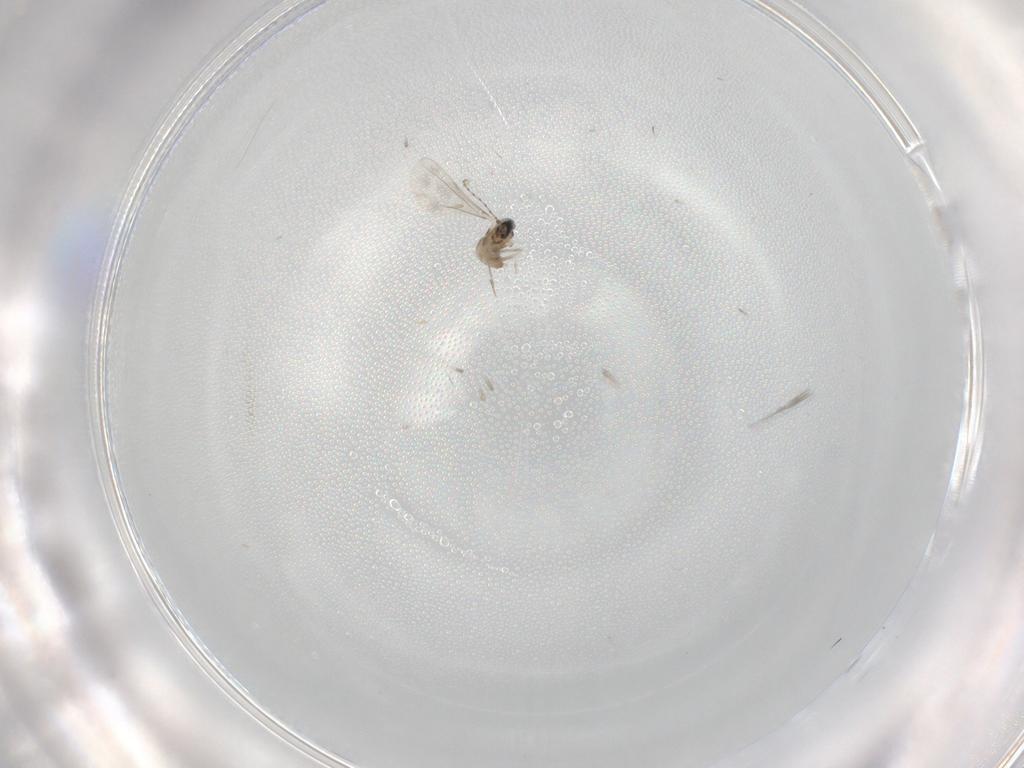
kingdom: Animalia
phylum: Arthropoda
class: Insecta
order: Diptera
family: Cecidomyiidae
